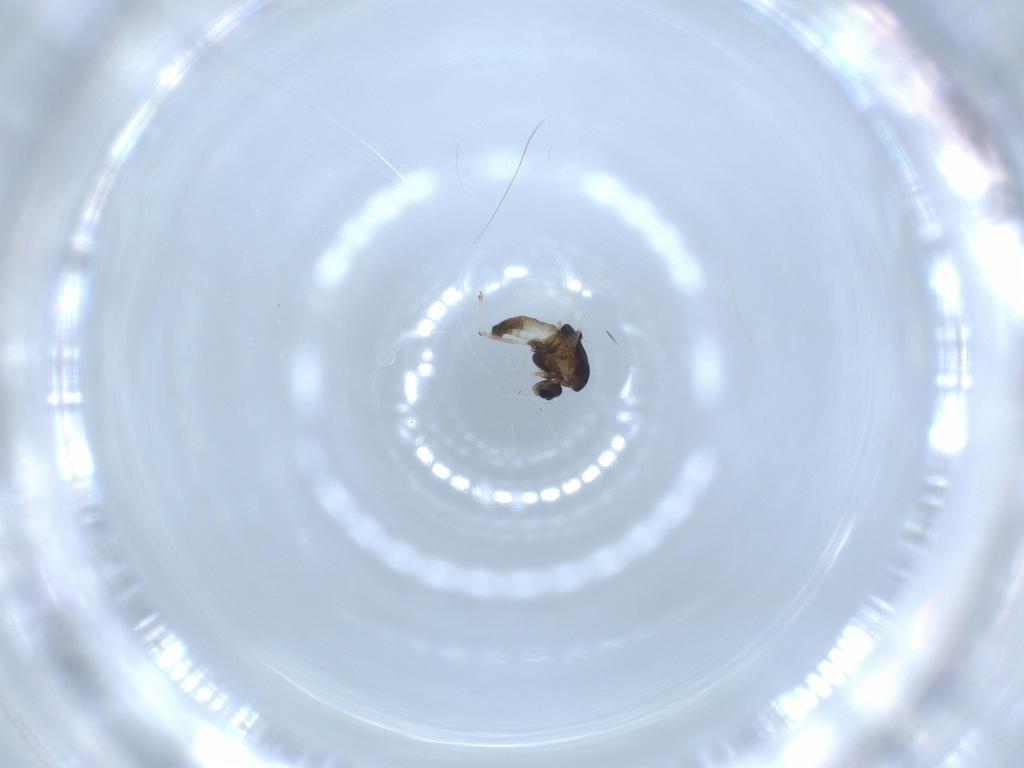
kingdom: Animalia
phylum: Arthropoda
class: Insecta
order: Diptera
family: Chironomidae
